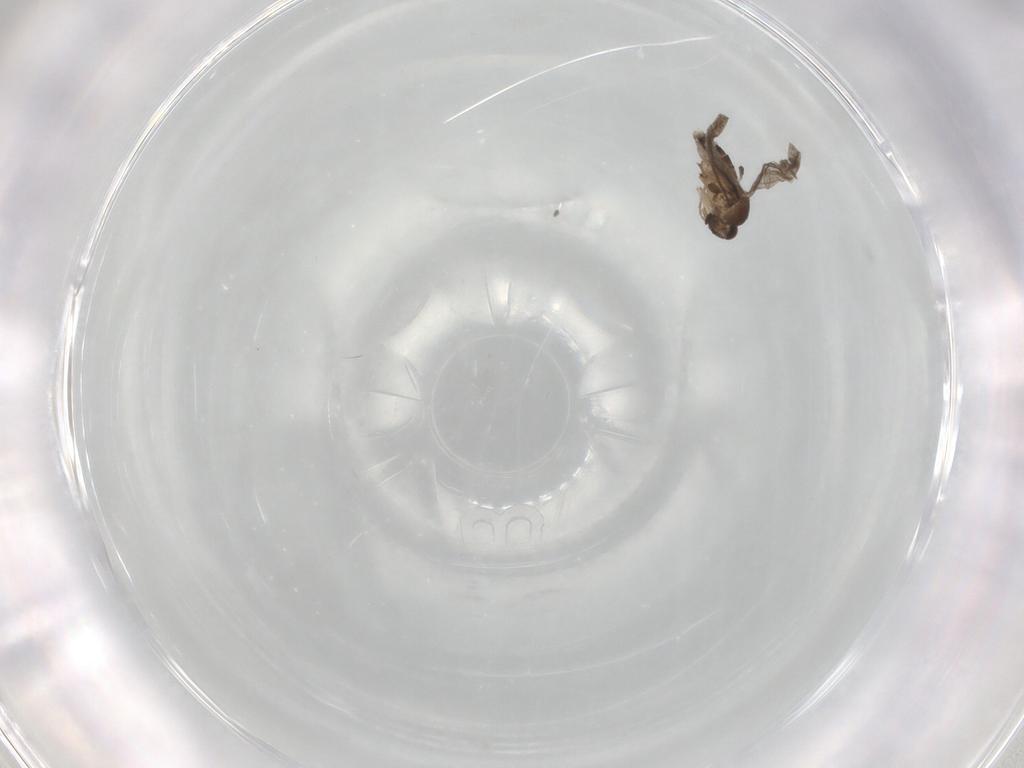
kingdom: Animalia
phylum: Arthropoda
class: Insecta
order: Diptera
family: Phoridae
